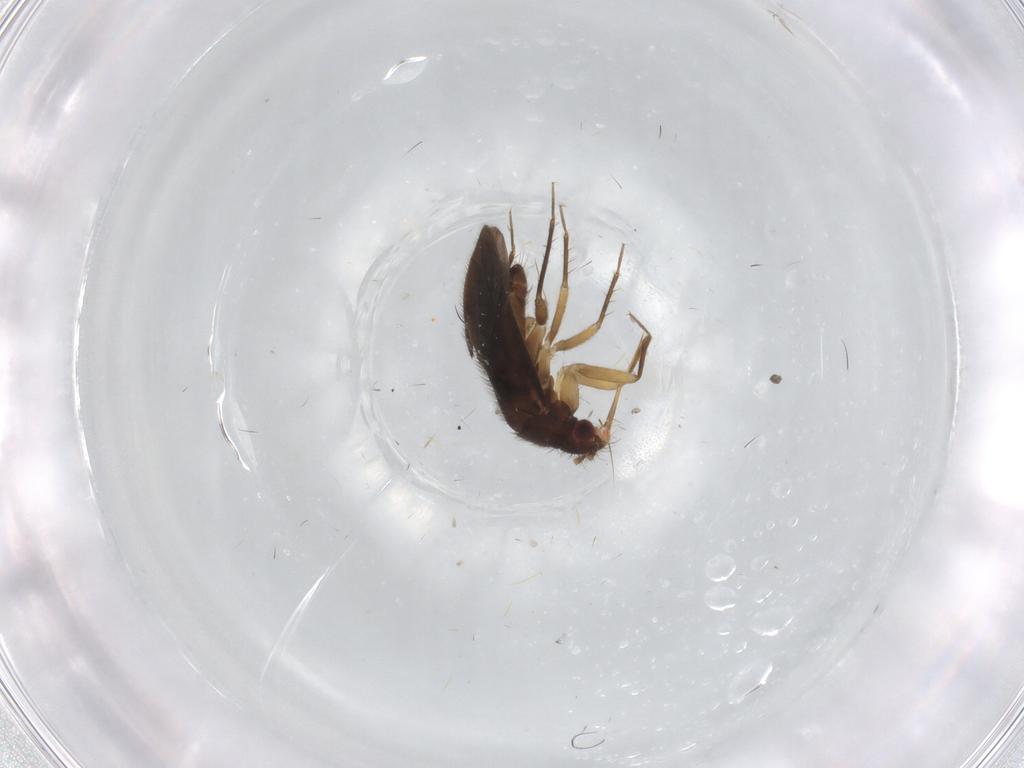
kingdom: Animalia
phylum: Arthropoda
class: Insecta
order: Hemiptera
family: Ceratocombidae
